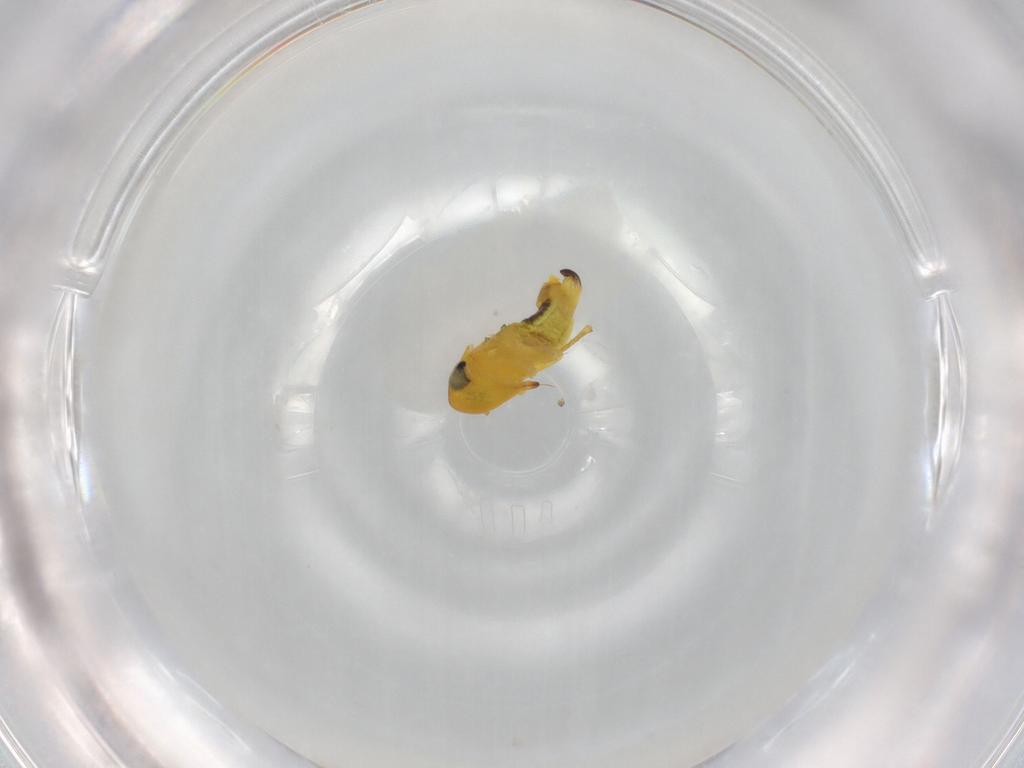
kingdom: Animalia
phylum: Arthropoda
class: Insecta
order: Hemiptera
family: Cicadellidae
